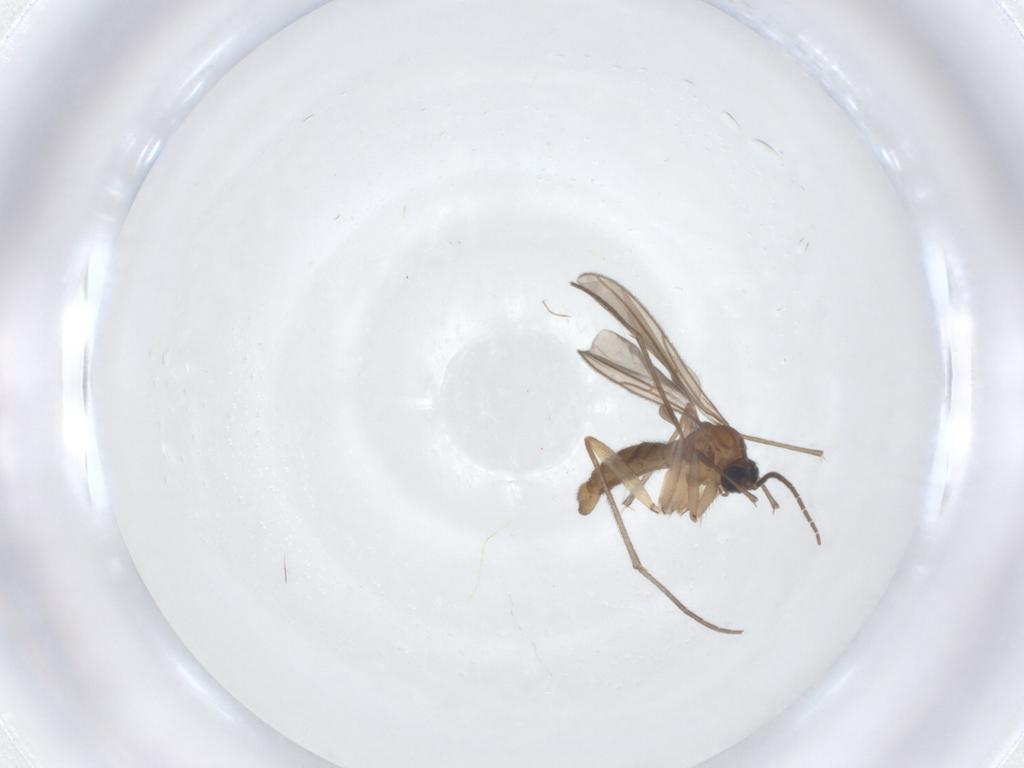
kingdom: Animalia
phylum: Arthropoda
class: Insecta
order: Diptera
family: Sciaridae
